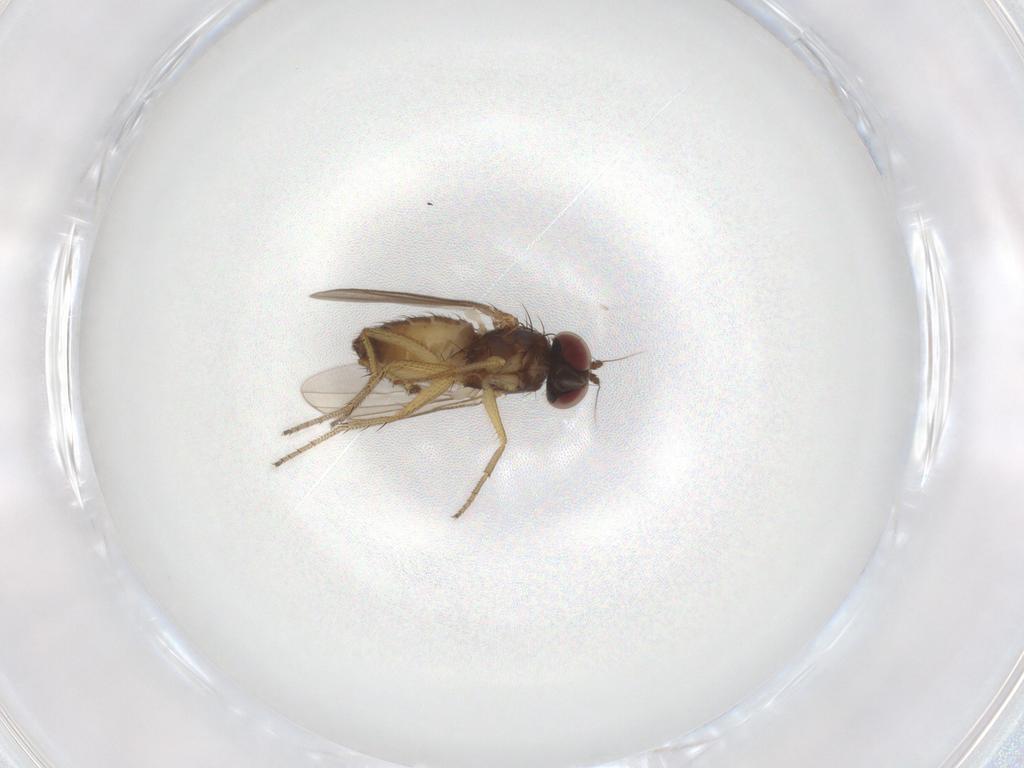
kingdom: Animalia
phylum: Arthropoda
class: Insecta
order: Diptera
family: Dolichopodidae
